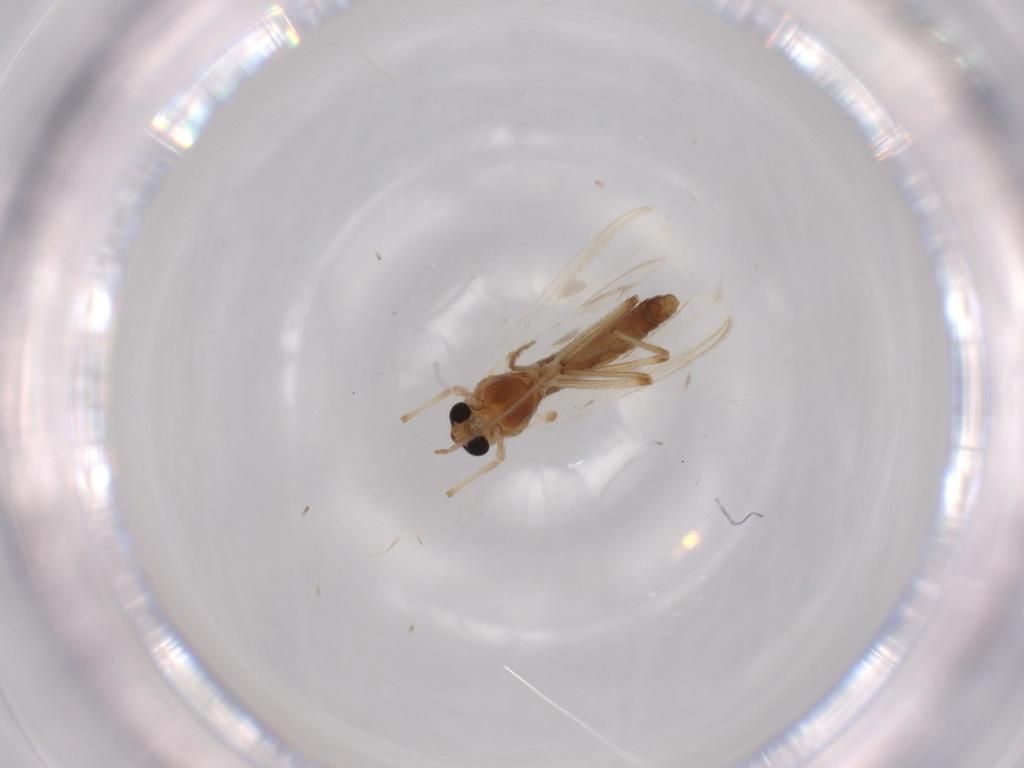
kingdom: Animalia
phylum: Arthropoda
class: Insecta
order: Diptera
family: Chironomidae
